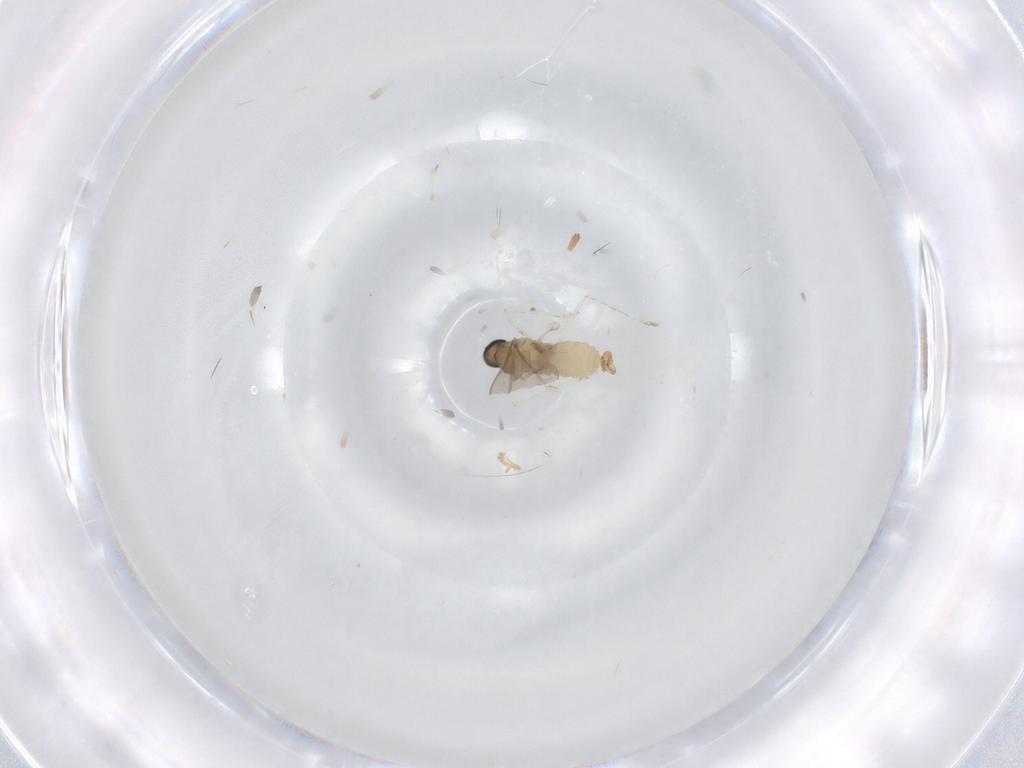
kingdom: Animalia
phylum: Arthropoda
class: Insecta
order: Diptera
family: Cecidomyiidae
